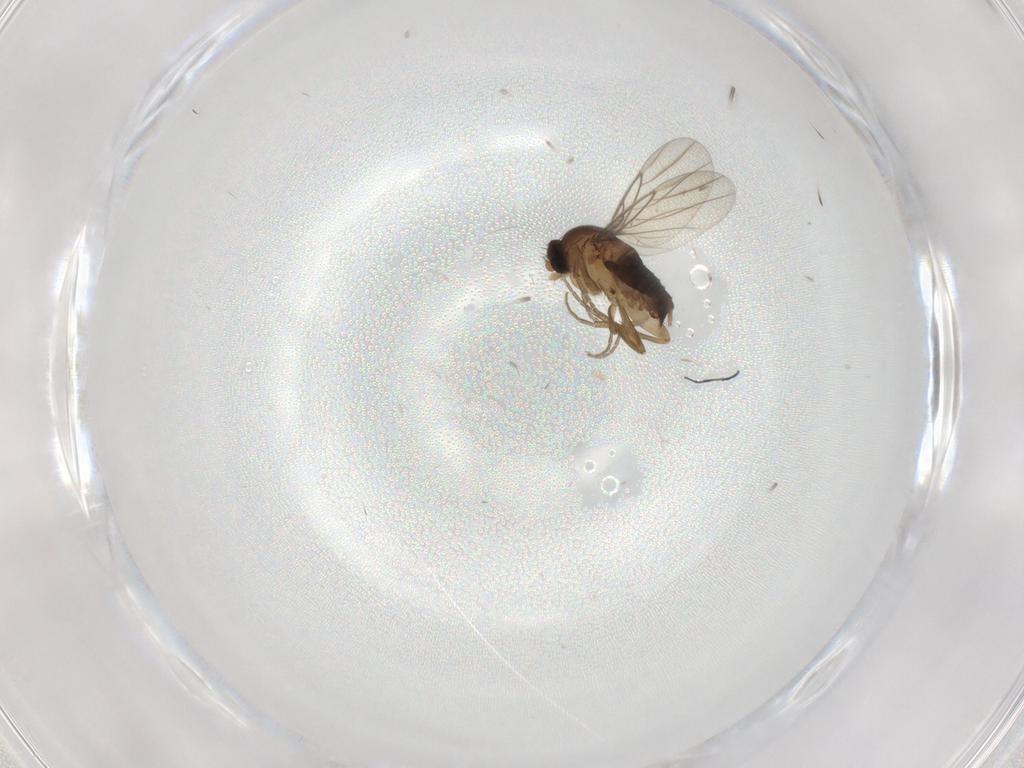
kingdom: Animalia
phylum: Arthropoda
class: Insecta
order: Diptera
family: Phoridae
